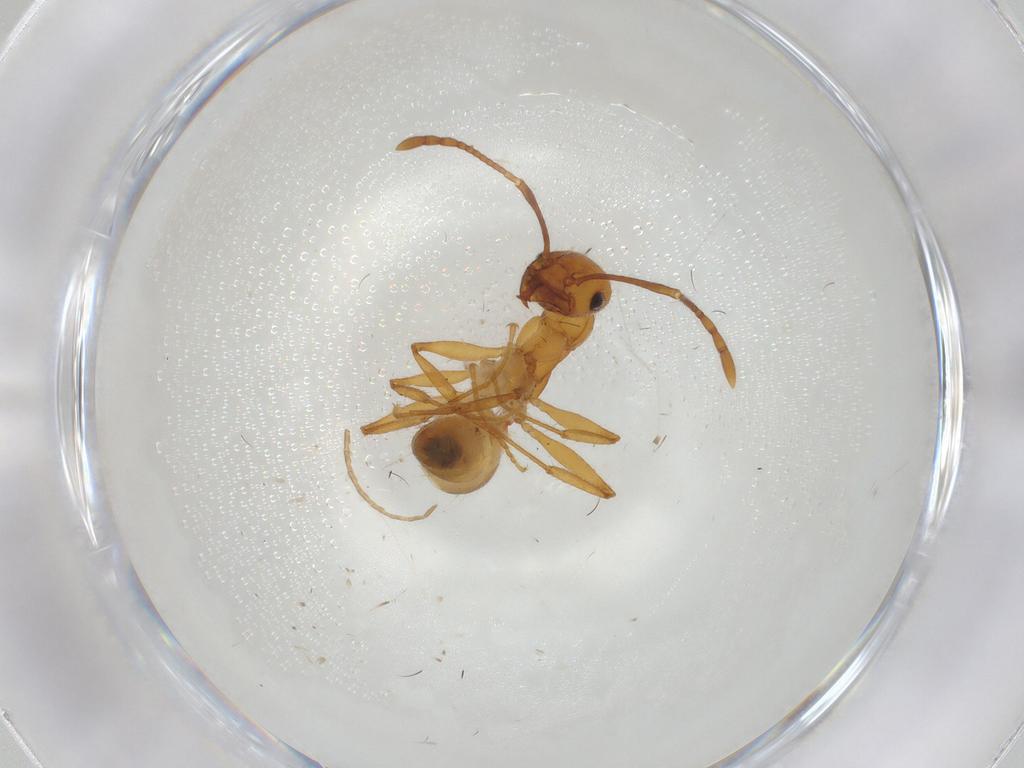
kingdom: Animalia
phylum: Arthropoda
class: Insecta
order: Hymenoptera
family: Formicidae
